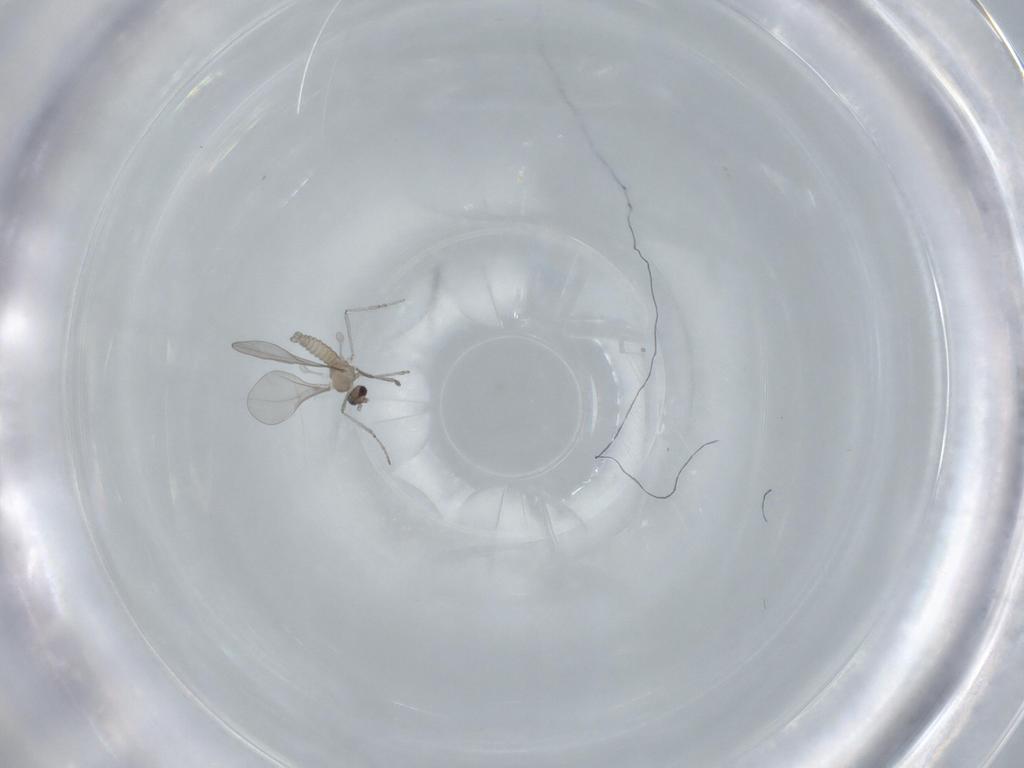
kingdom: Animalia
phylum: Arthropoda
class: Insecta
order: Diptera
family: Cecidomyiidae
